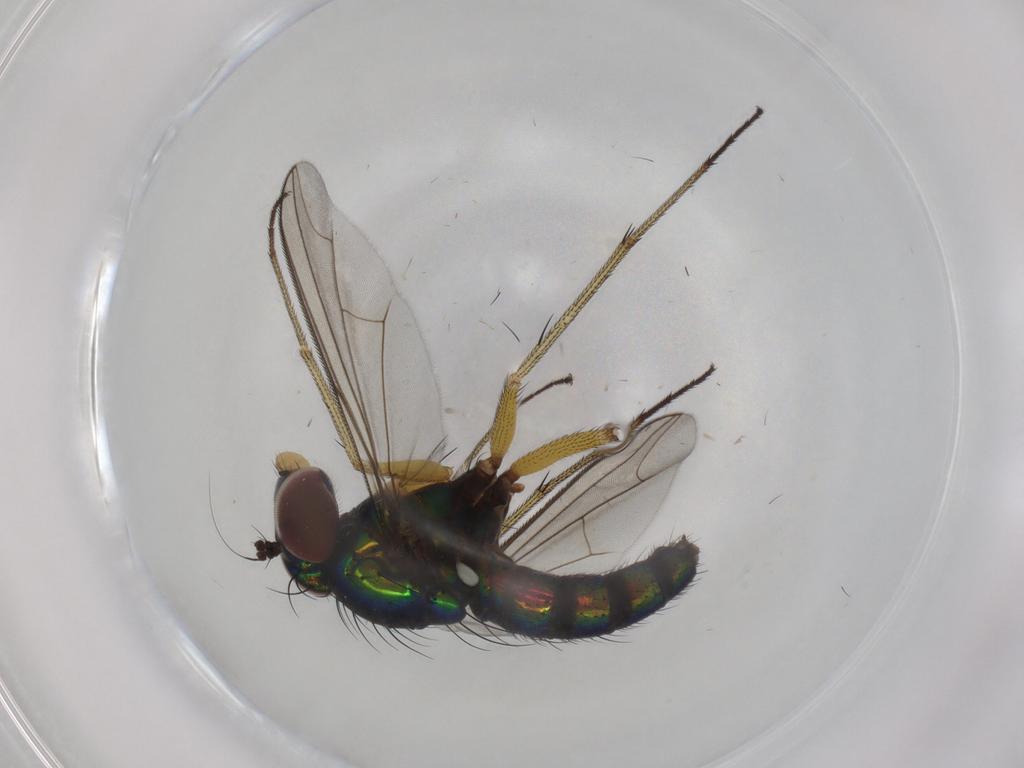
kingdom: Animalia
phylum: Arthropoda
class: Insecta
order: Diptera
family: Dolichopodidae
